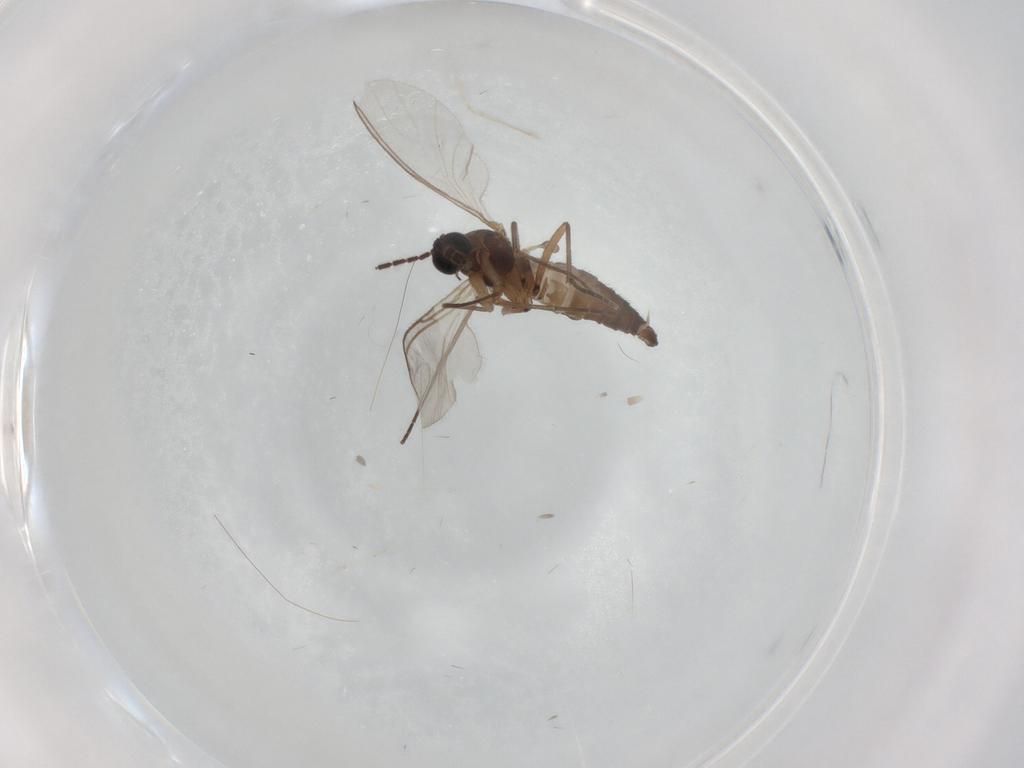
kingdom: Animalia
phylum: Arthropoda
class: Insecta
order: Diptera
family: Sciaridae
